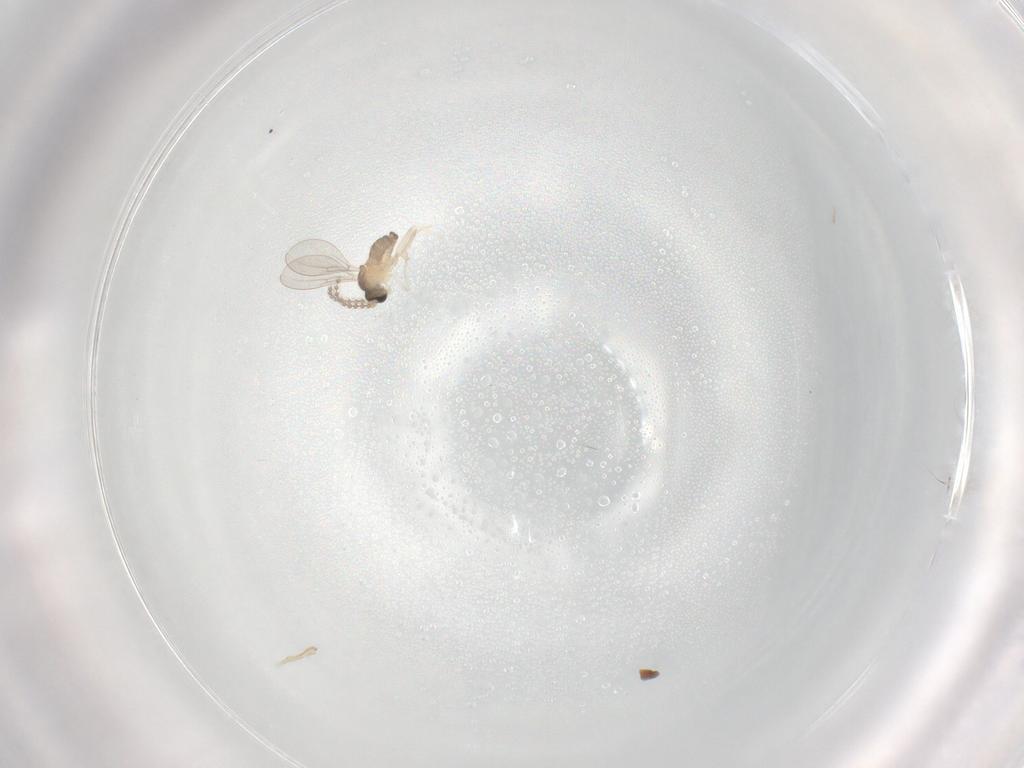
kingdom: Animalia
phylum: Arthropoda
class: Insecta
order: Diptera
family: Cecidomyiidae
